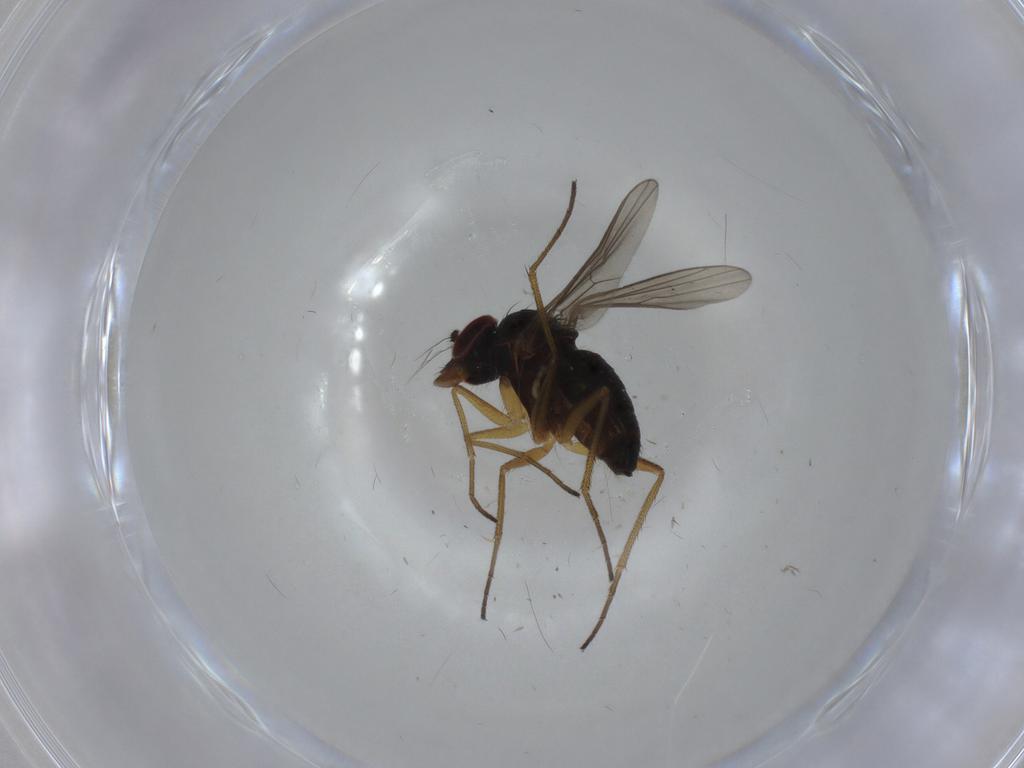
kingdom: Animalia
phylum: Arthropoda
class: Insecta
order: Diptera
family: Dolichopodidae
